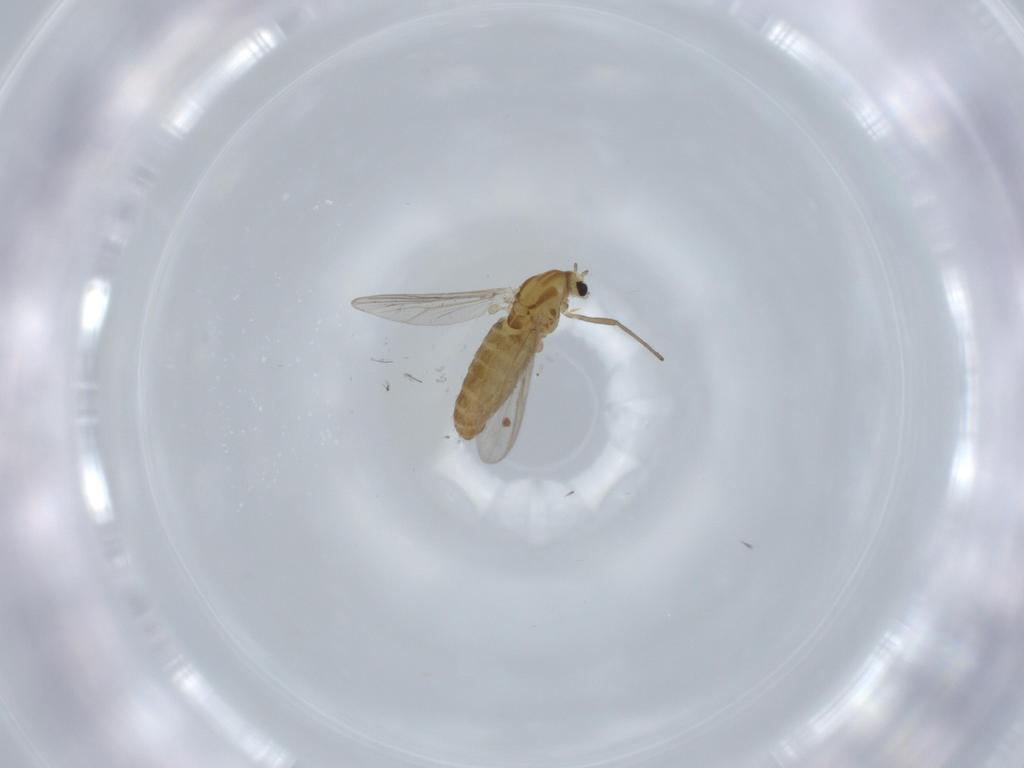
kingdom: Animalia
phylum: Arthropoda
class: Insecta
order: Diptera
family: Chironomidae
